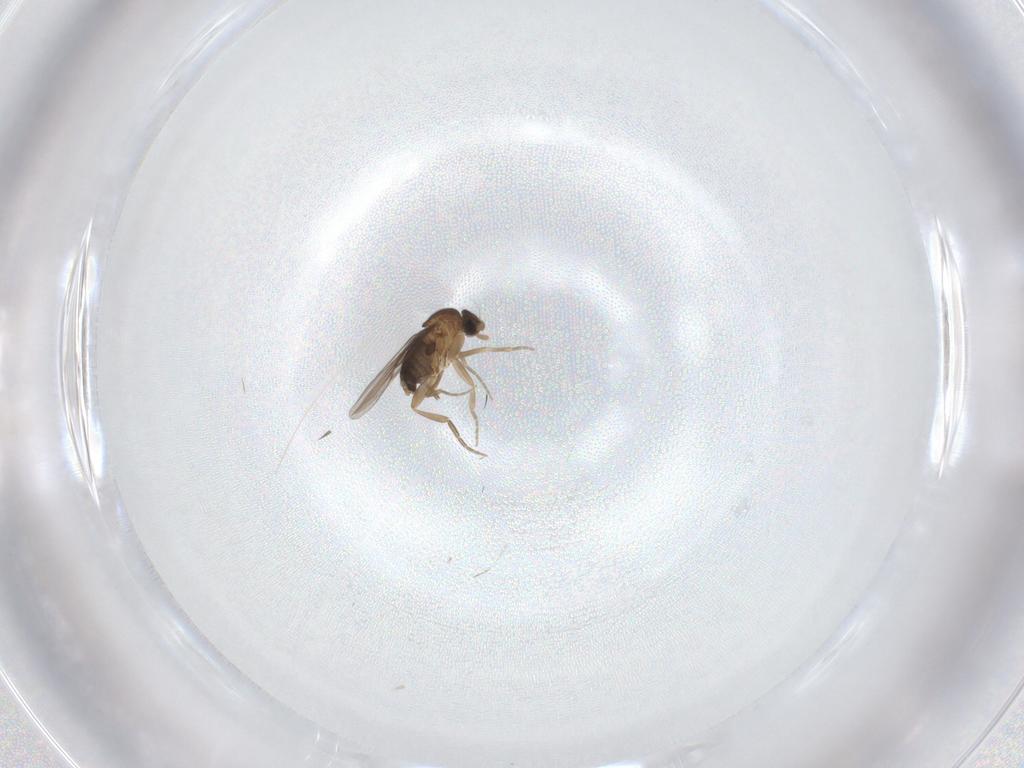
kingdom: Animalia
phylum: Arthropoda
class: Insecta
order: Diptera
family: Phoridae
